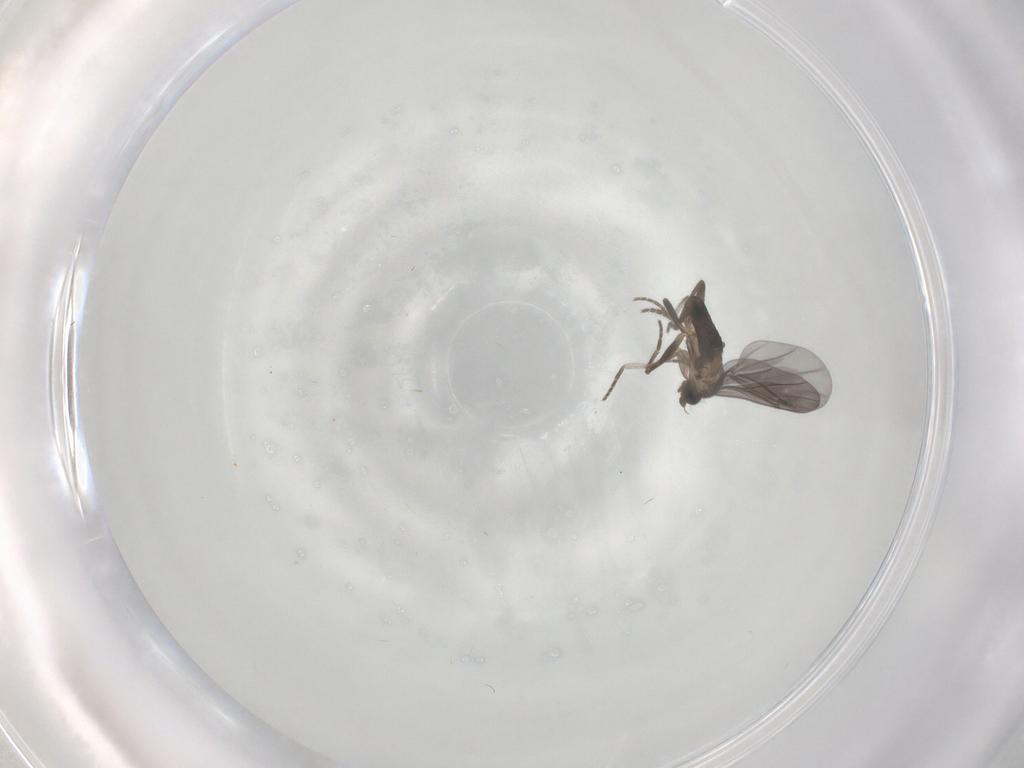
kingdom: Animalia
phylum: Arthropoda
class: Insecta
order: Diptera
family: Phoridae
